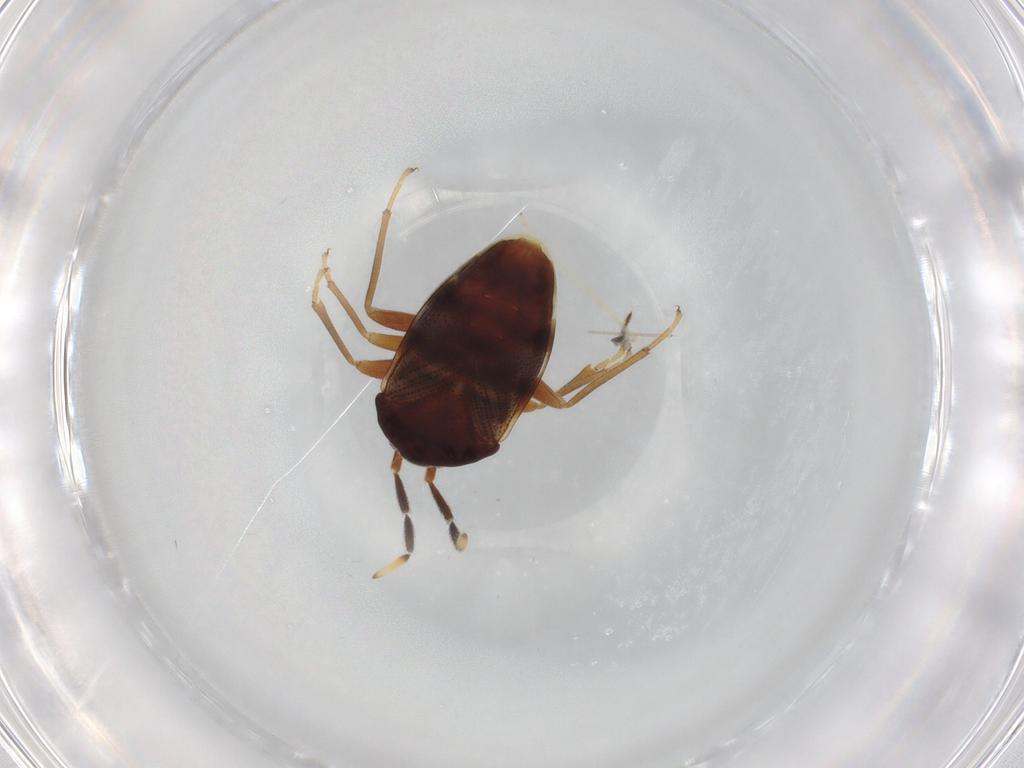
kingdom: Animalia
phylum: Arthropoda
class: Insecta
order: Hemiptera
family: Rhyparochromidae
